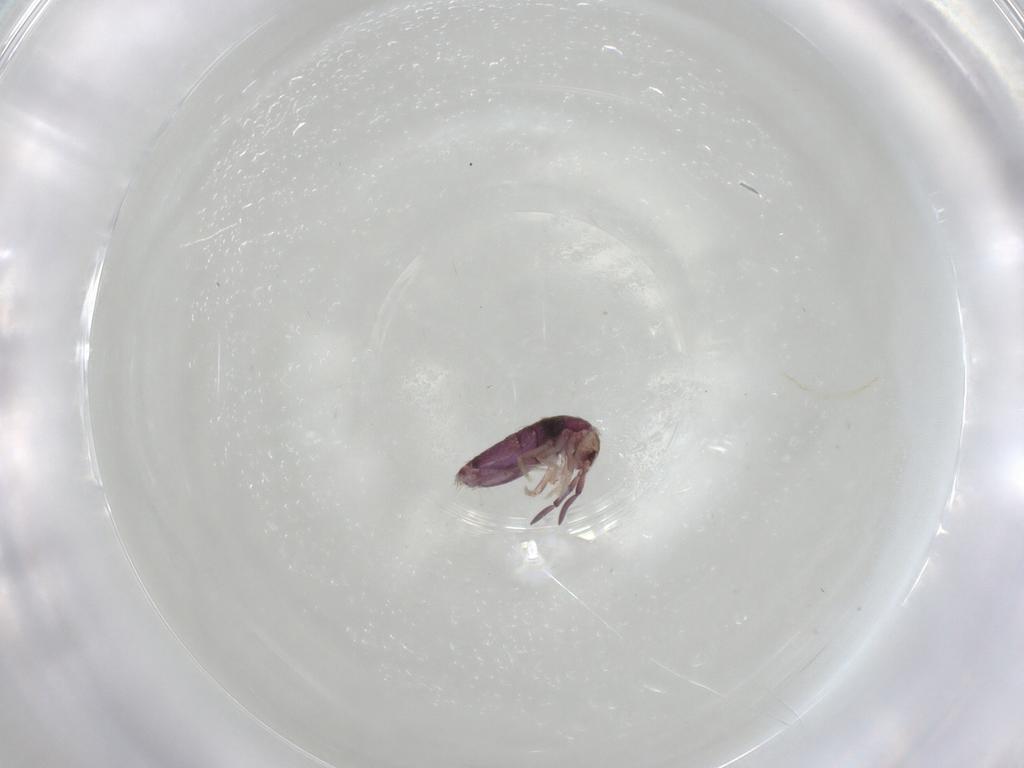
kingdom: Animalia
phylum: Arthropoda
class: Collembola
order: Entomobryomorpha
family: Entomobryidae
